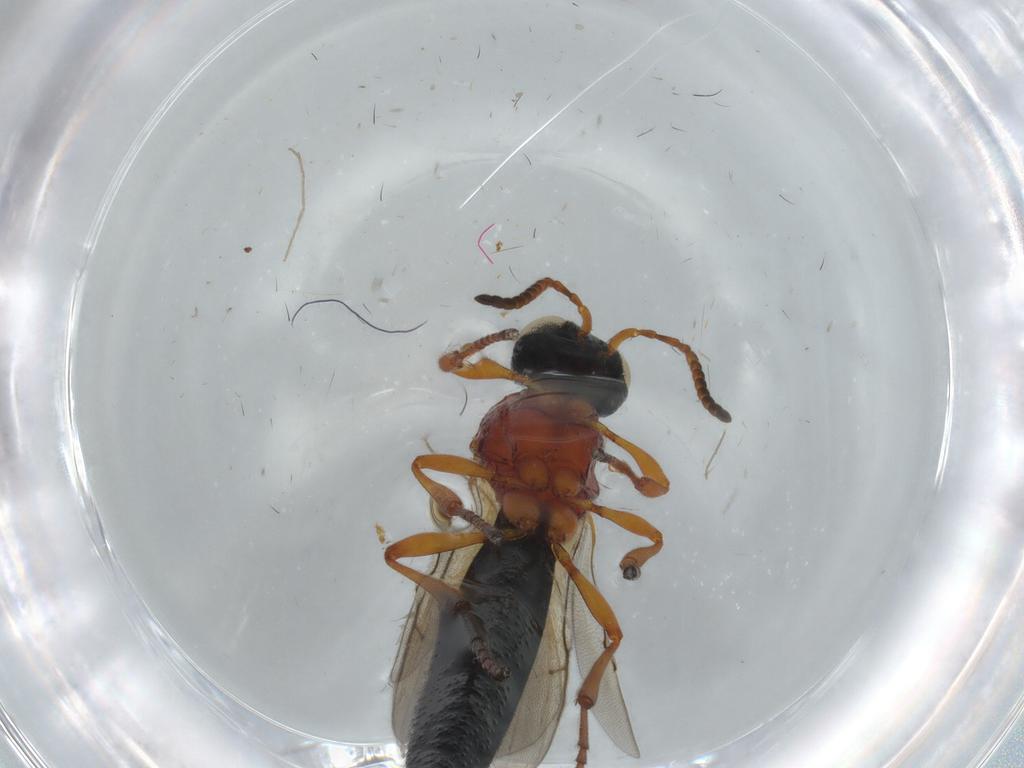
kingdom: Animalia
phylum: Arthropoda
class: Insecta
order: Hymenoptera
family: Scelionidae
